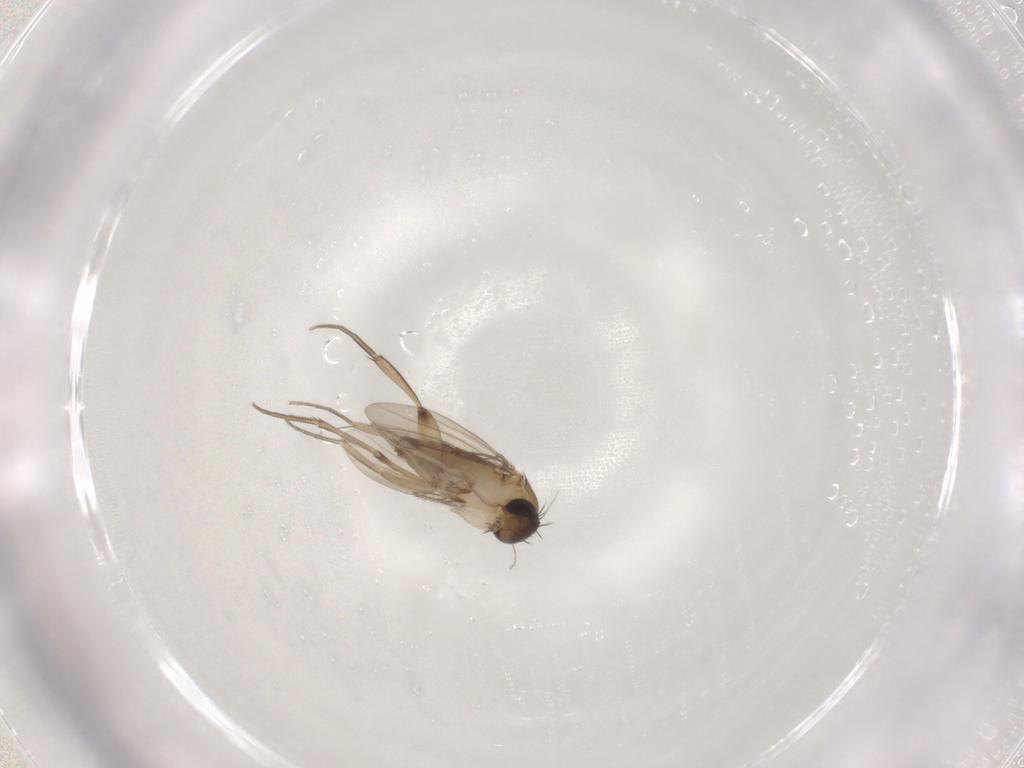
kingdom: Animalia
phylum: Arthropoda
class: Insecta
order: Diptera
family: Phoridae
